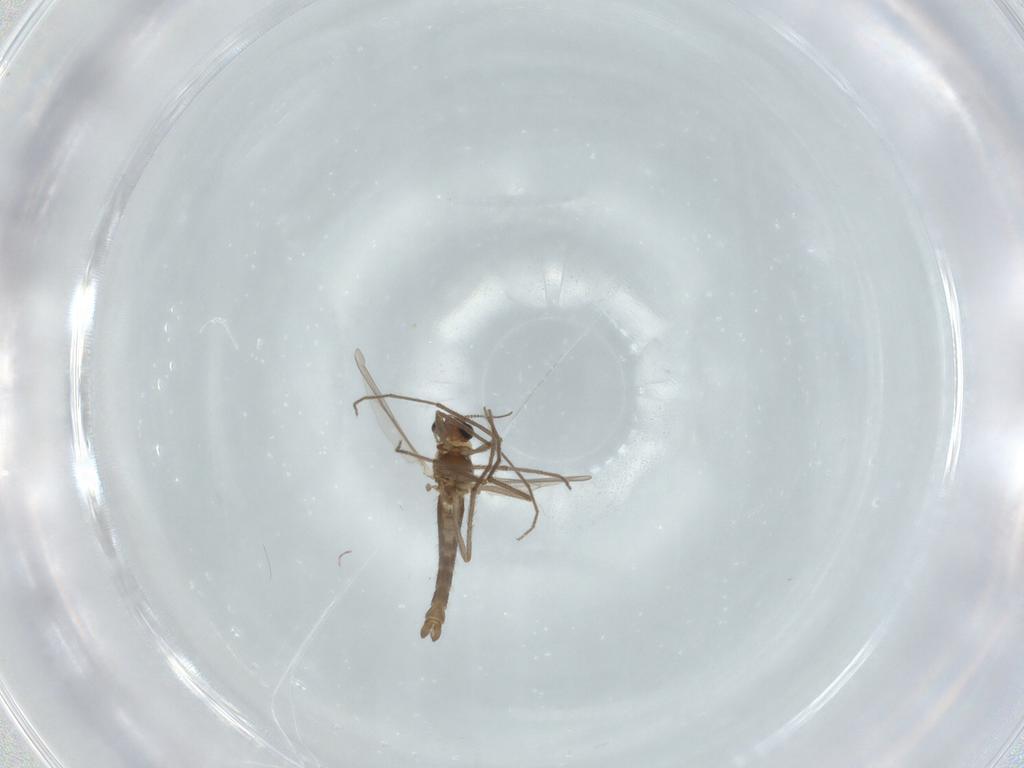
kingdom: Animalia
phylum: Arthropoda
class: Insecta
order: Diptera
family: Chironomidae
